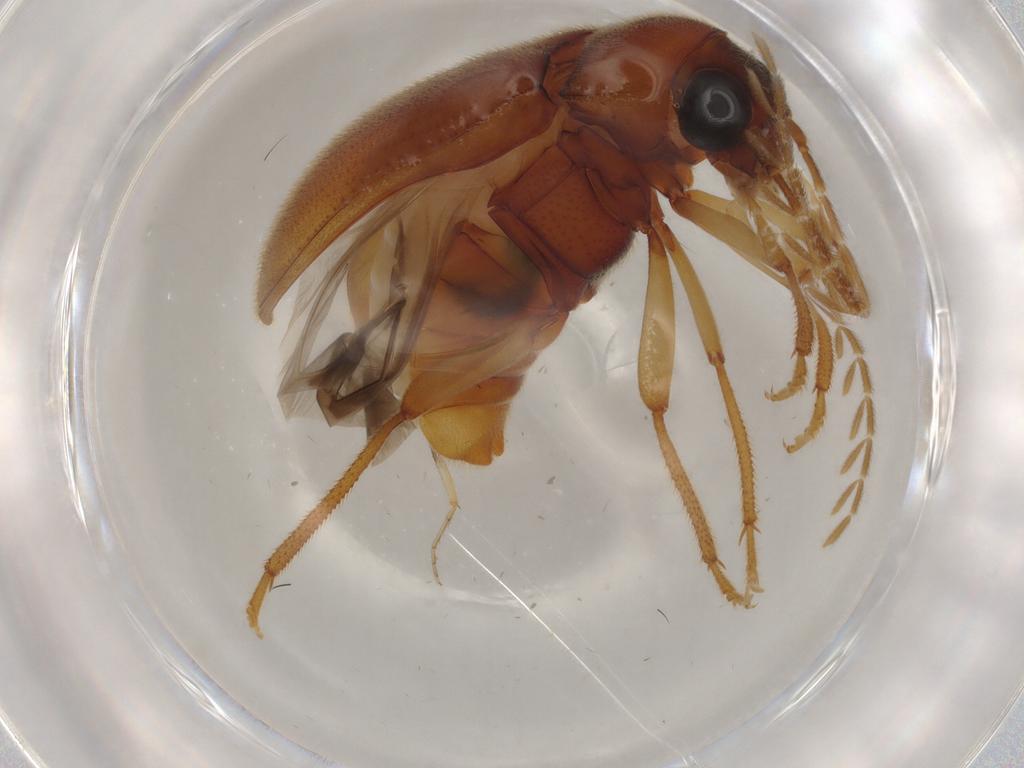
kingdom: Animalia
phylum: Arthropoda
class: Insecta
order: Coleoptera
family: Ptilodactylidae
